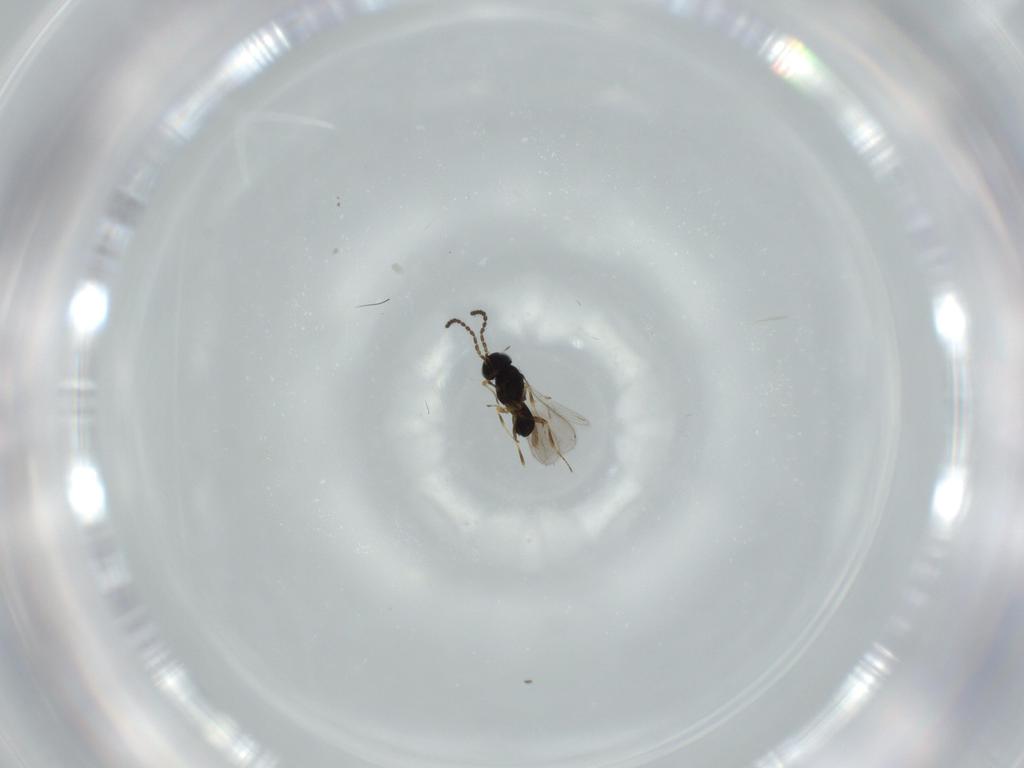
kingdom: Animalia
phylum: Arthropoda
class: Insecta
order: Hymenoptera
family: Scelionidae
